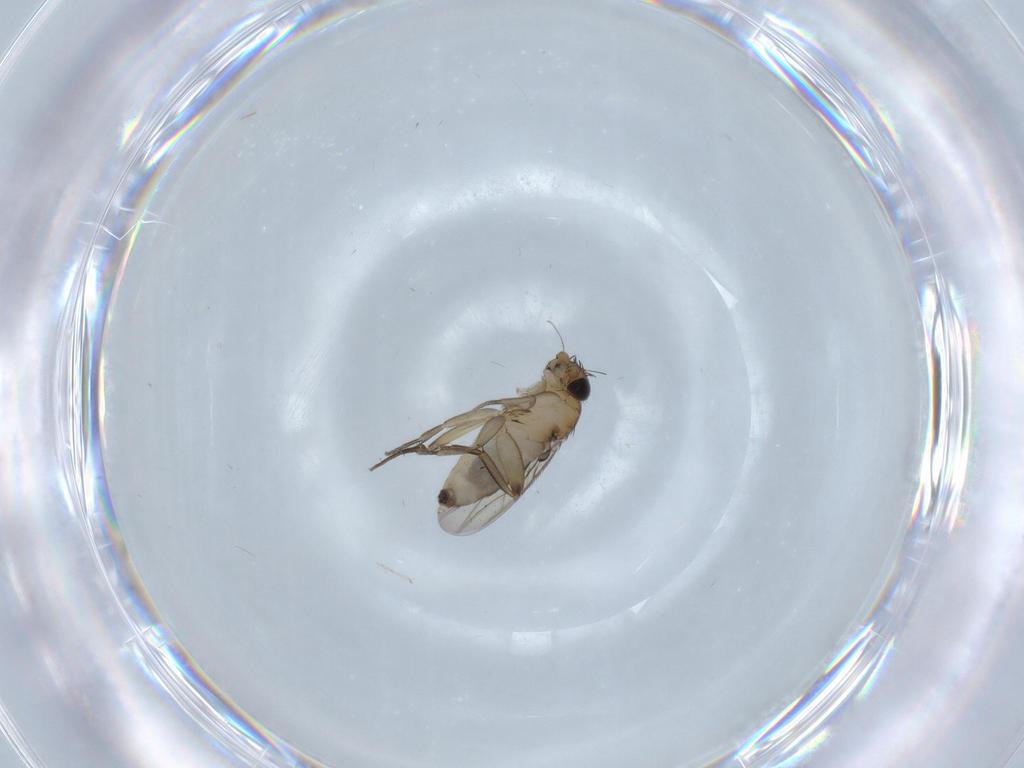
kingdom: Animalia
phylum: Arthropoda
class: Insecta
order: Diptera
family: Phoridae
